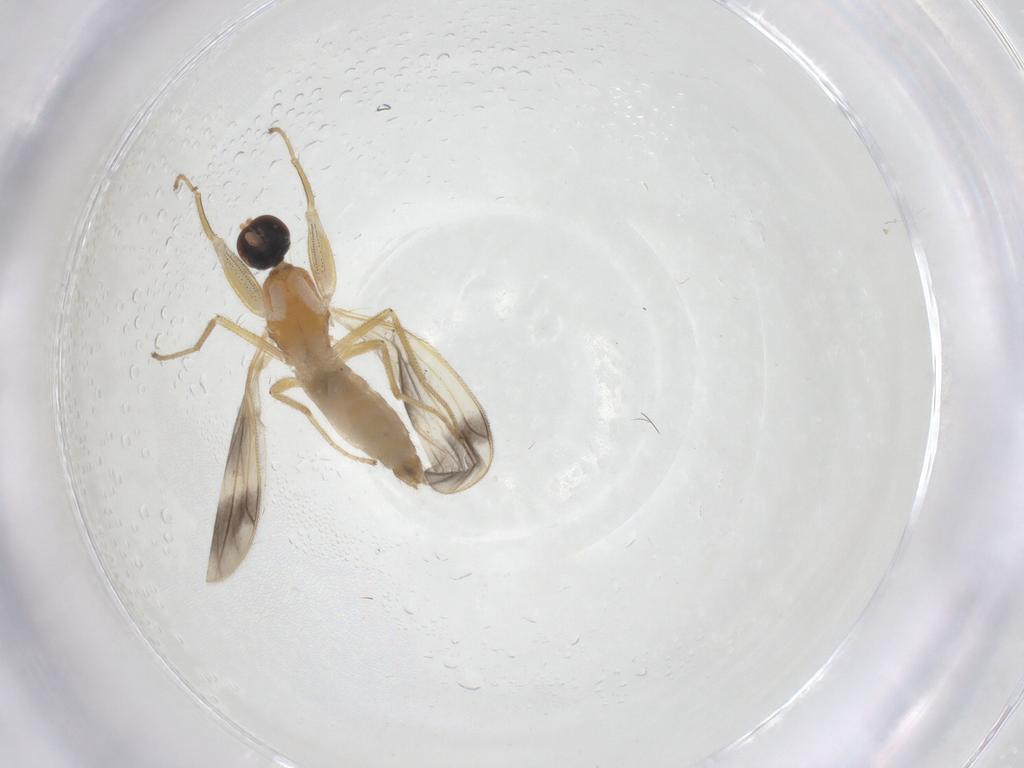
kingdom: Animalia
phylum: Arthropoda
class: Insecta
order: Diptera
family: Chironomidae
